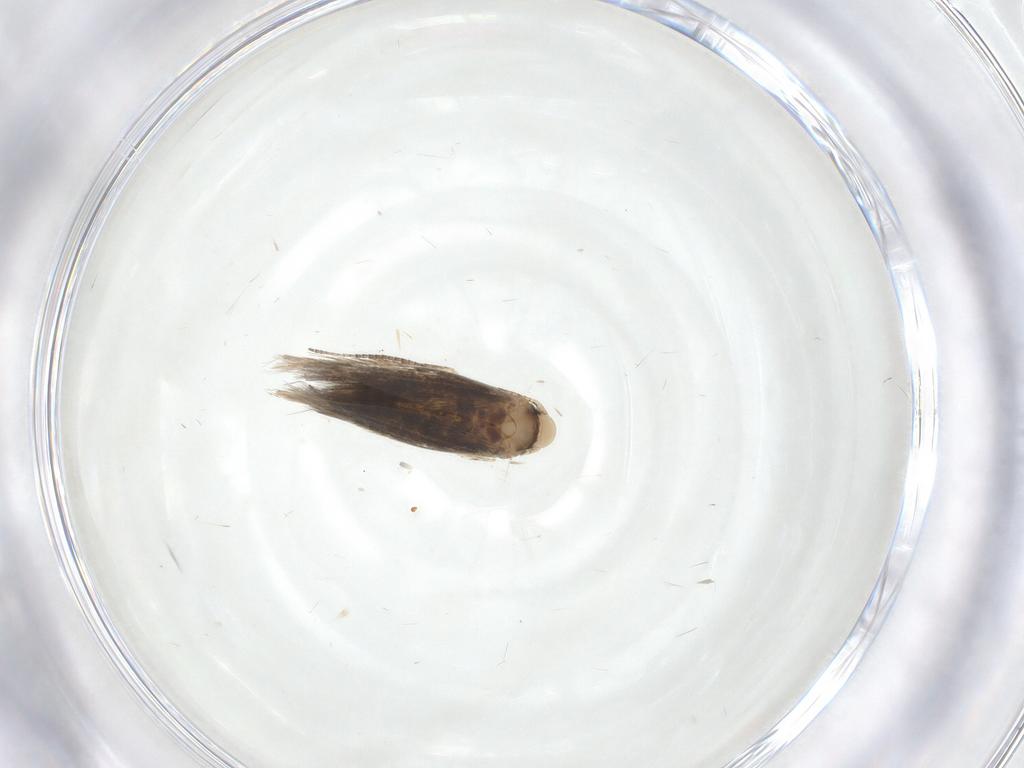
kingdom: Animalia
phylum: Arthropoda
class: Insecta
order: Lepidoptera
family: Geometridae
